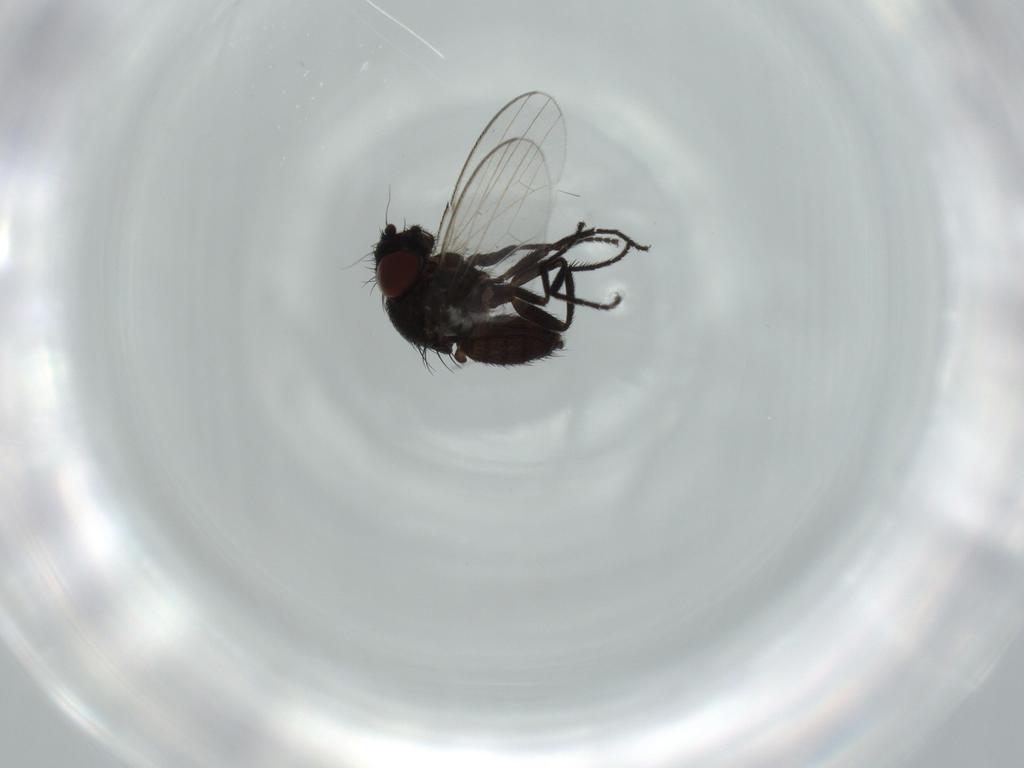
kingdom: Animalia
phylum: Arthropoda
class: Insecta
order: Diptera
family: Milichiidae
